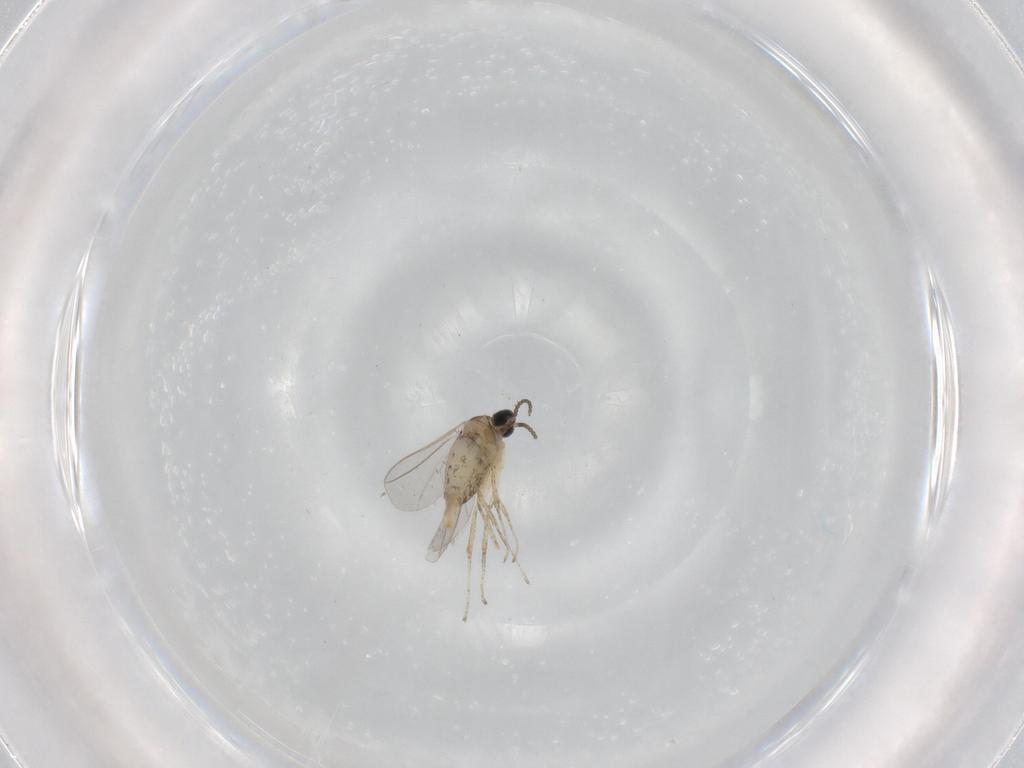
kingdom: Animalia
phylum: Arthropoda
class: Insecta
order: Diptera
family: Cecidomyiidae
